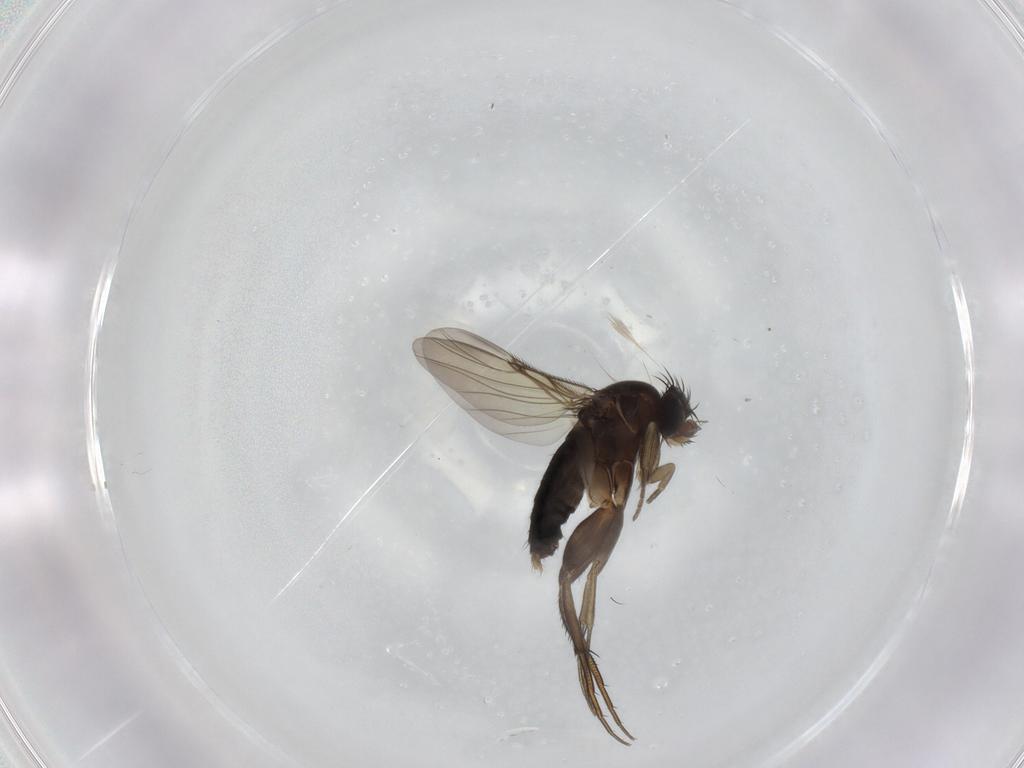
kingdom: Animalia
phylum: Arthropoda
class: Insecta
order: Diptera
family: Phoridae
